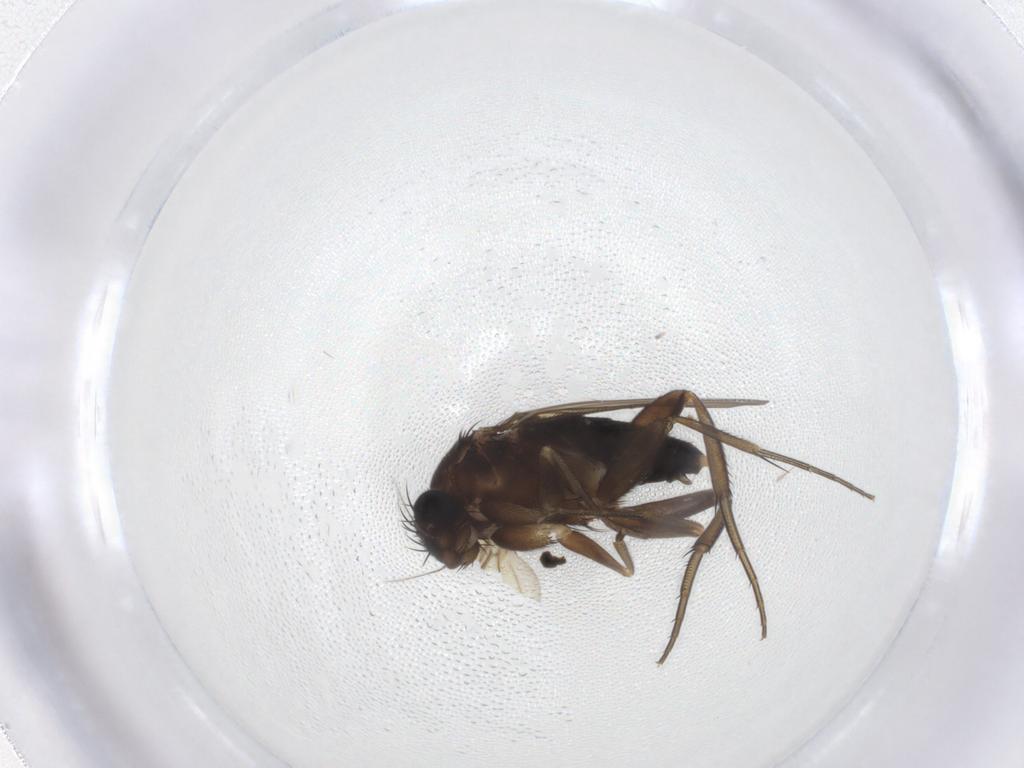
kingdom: Animalia
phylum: Arthropoda
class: Insecta
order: Diptera
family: Phoridae
